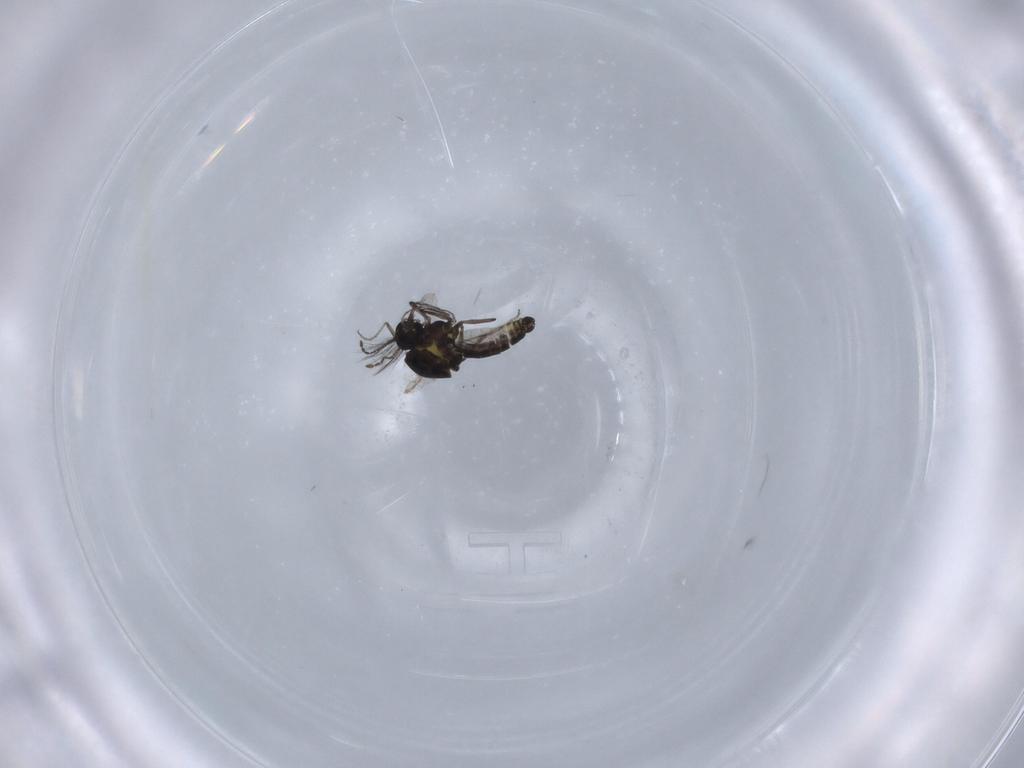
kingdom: Animalia
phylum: Arthropoda
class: Insecta
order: Diptera
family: Ceratopogonidae
